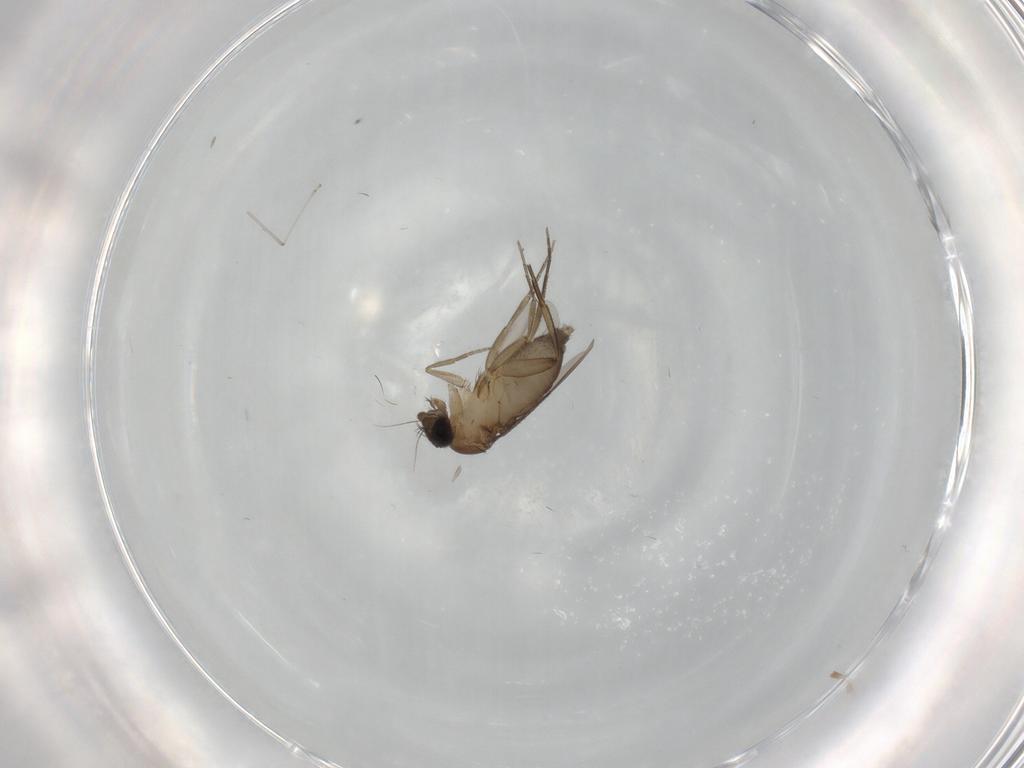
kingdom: Animalia
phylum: Arthropoda
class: Insecta
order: Diptera
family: Phoridae
